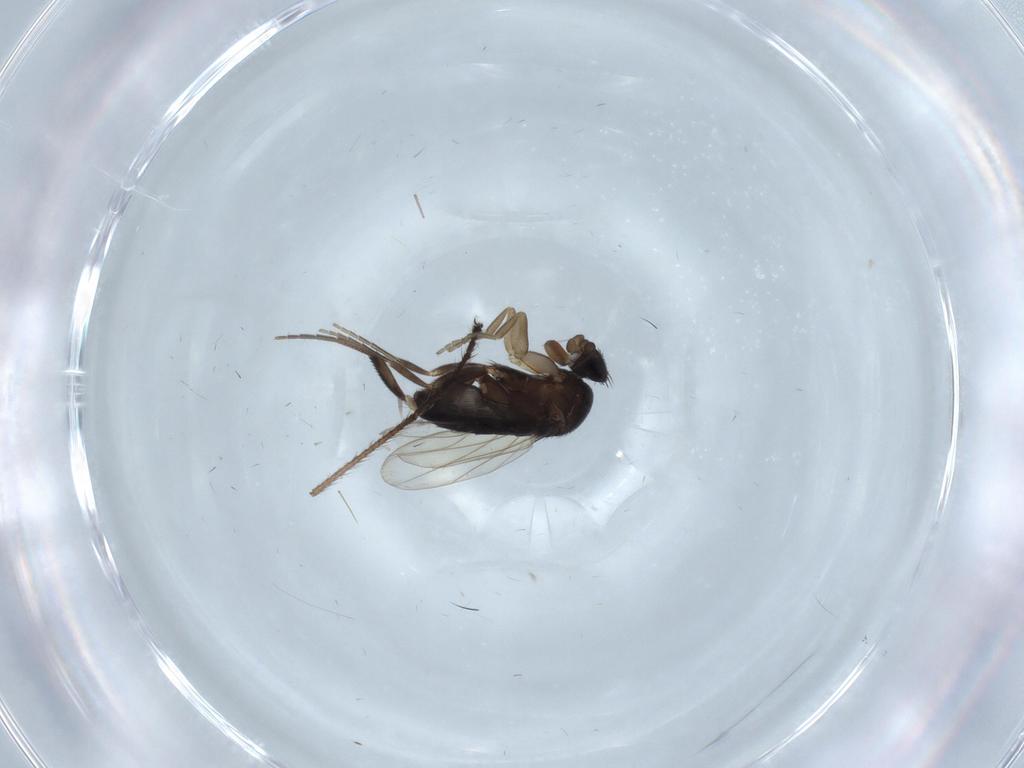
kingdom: Animalia
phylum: Arthropoda
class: Insecta
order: Diptera
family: Phoridae
